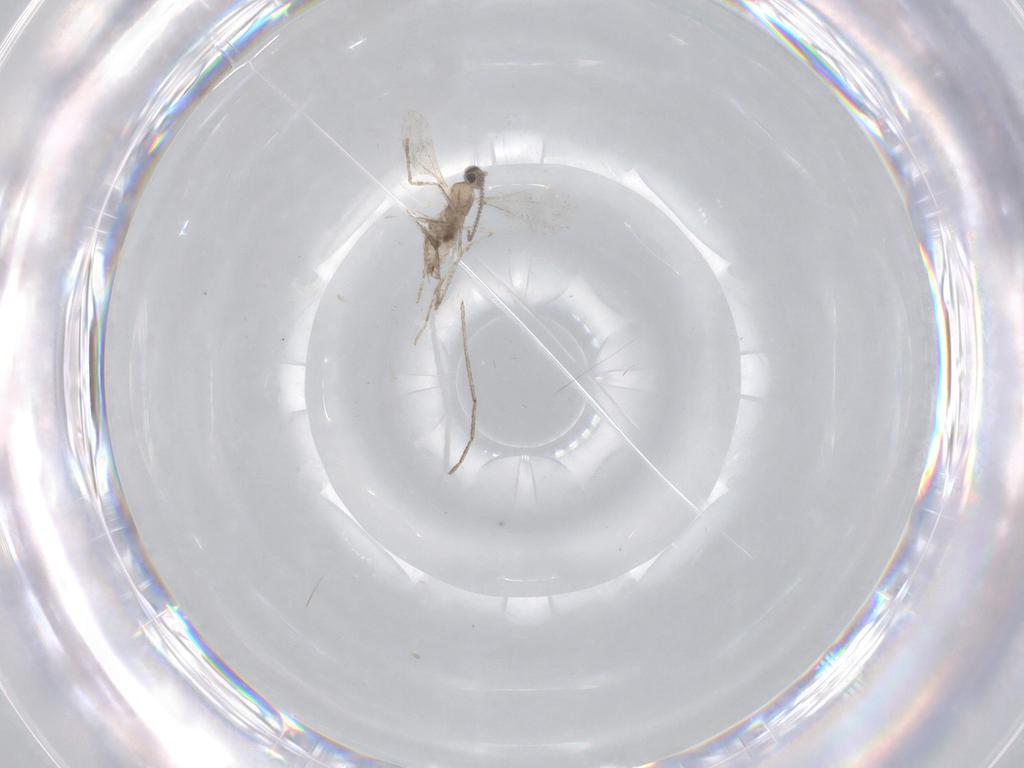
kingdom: Animalia
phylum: Arthropoda
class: Insecta
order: Diptera
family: Cecidomyiidae
